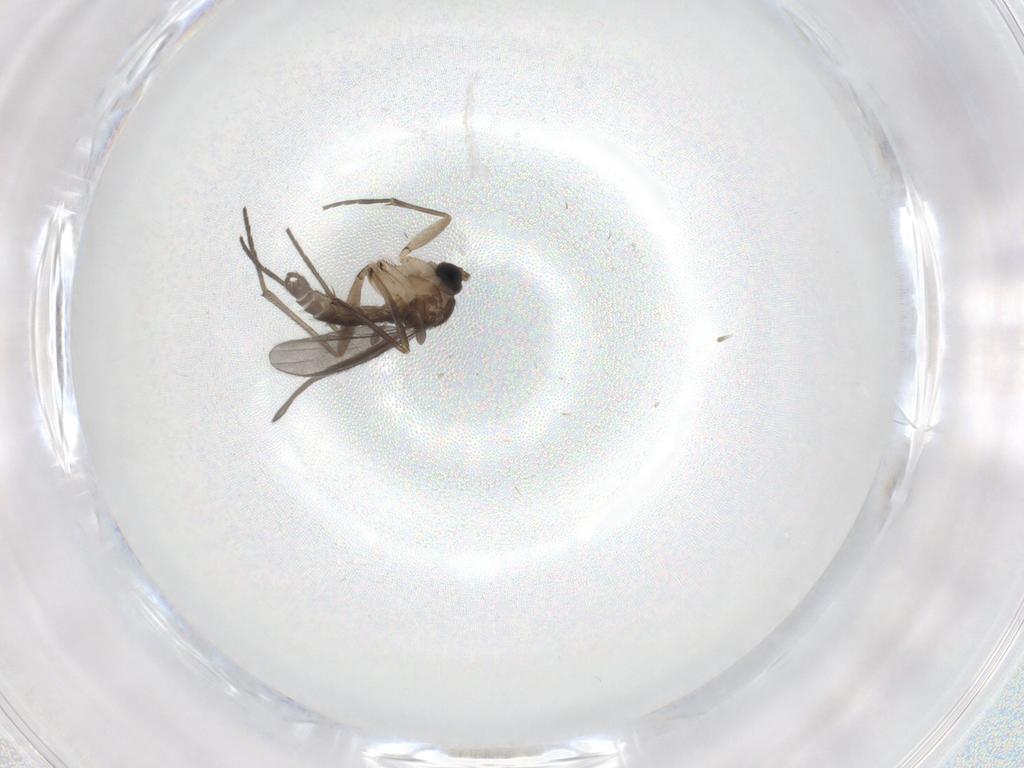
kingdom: Animalia
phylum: Arthropoda
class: Insecta
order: Diptera
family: Sciaridae
